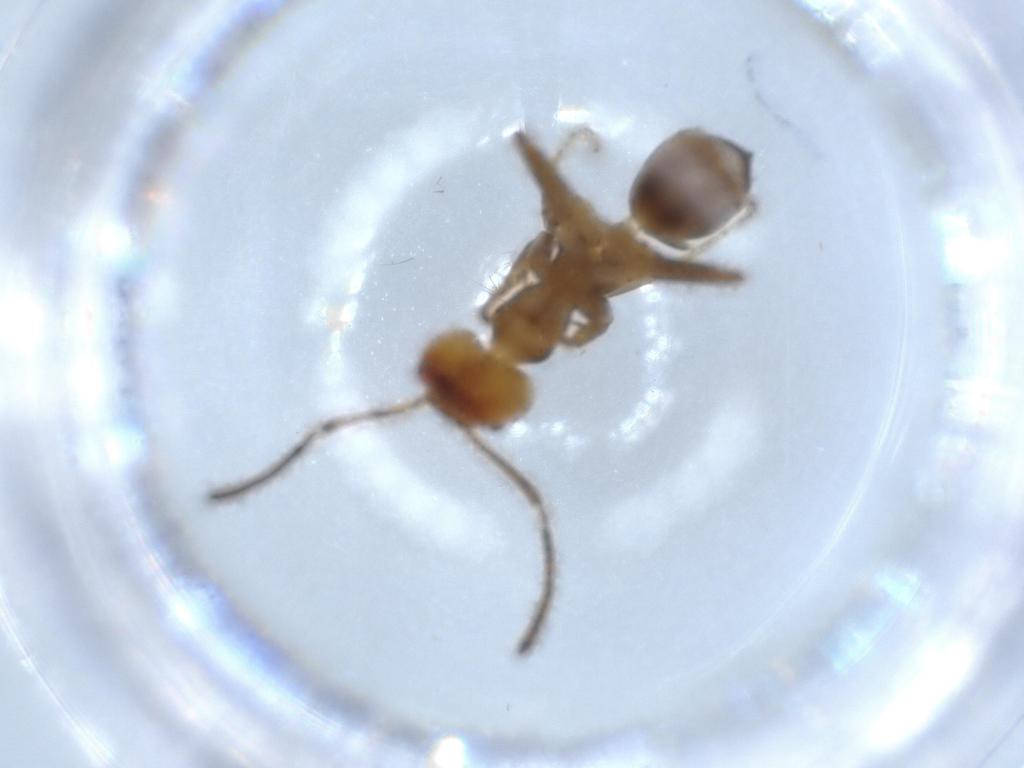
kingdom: Animalia
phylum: Arthropoda
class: Insecta
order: Hymenoptera
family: Formicidae
